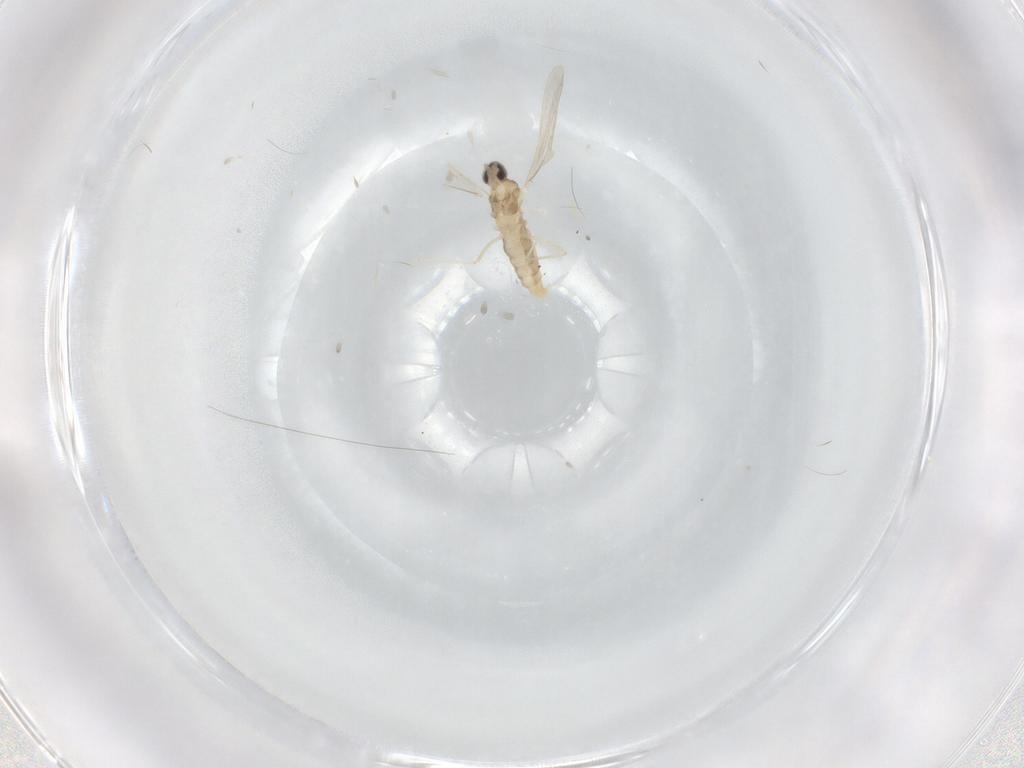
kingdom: Animalia
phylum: Arthropoda
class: Insecta
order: Diptera
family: Cecidomyiidae
